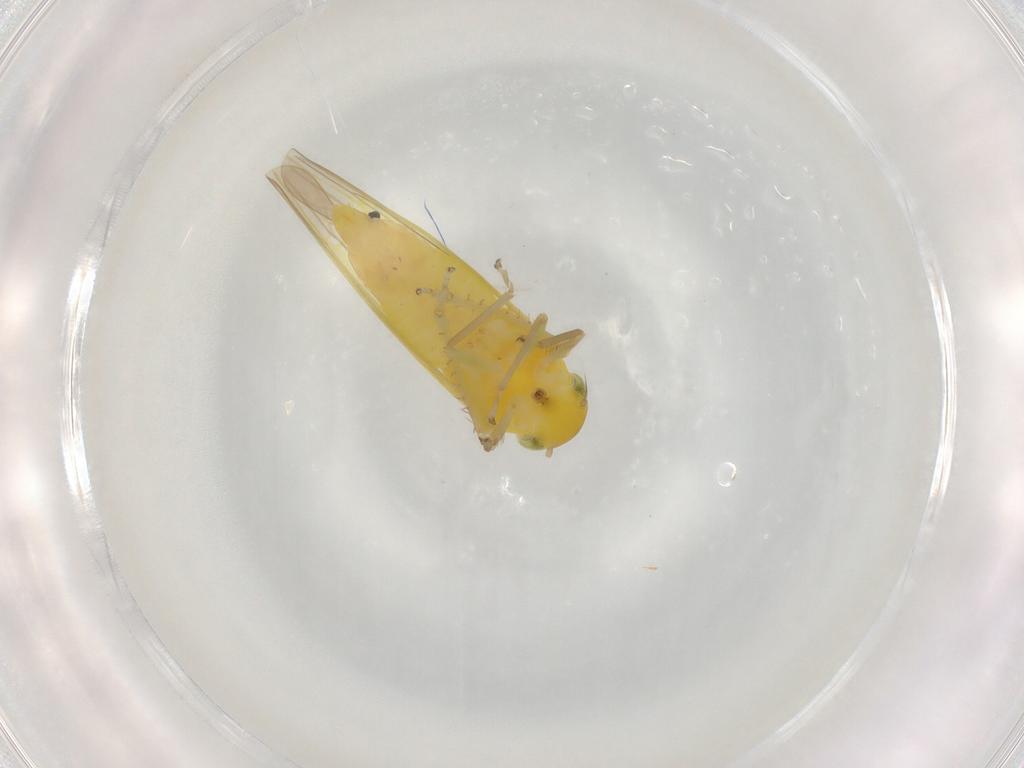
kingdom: Animalia
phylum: Arthropoda
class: Insecta
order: Hemiptera
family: Cicadellidae
